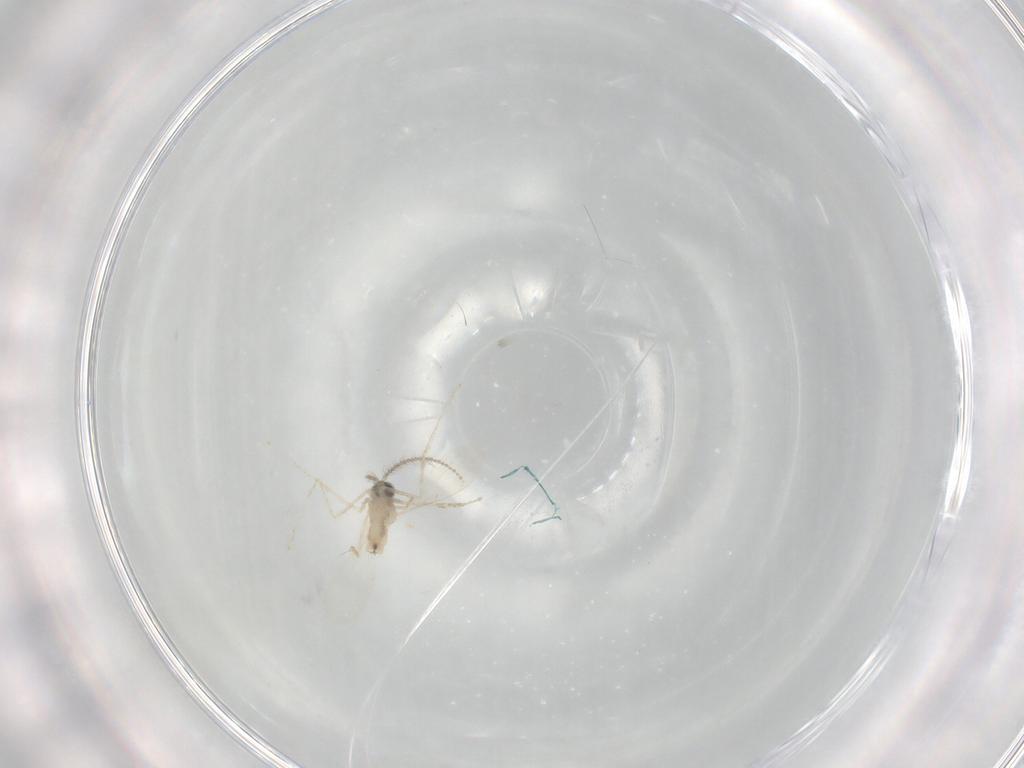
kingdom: Animalia
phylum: Arthropoda
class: Insecta
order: Diptera
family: Cecidomyiidae
